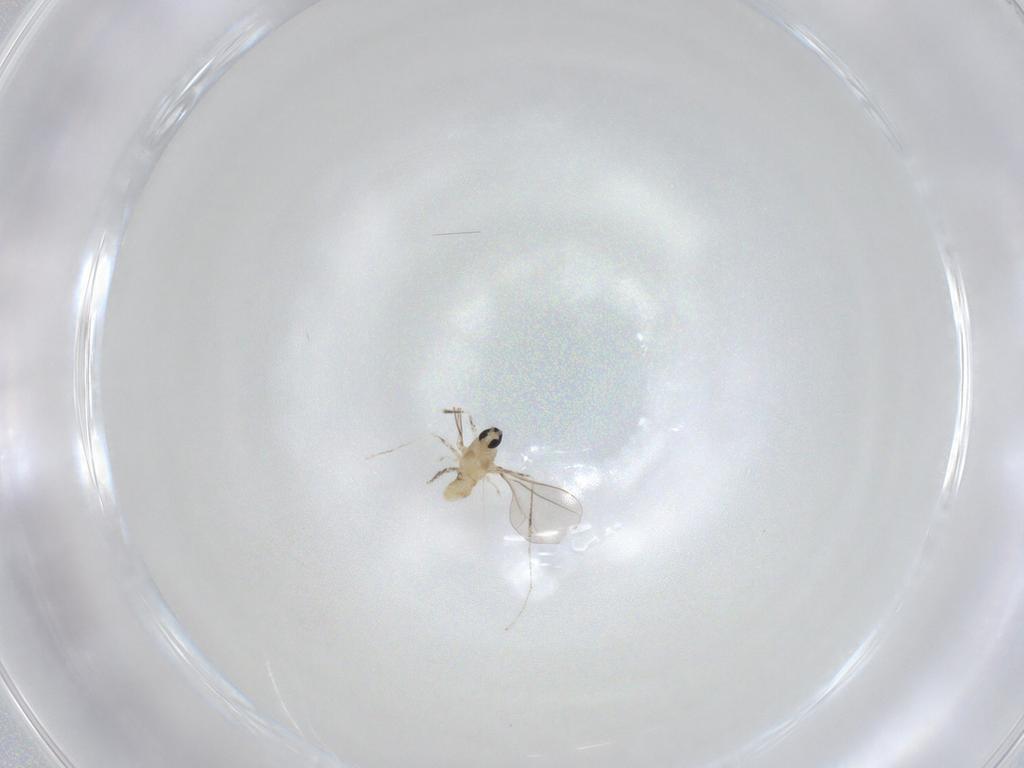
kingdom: Animalia
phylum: Arthropoda
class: Insecta
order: Diptera
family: Cecidomyiidae
